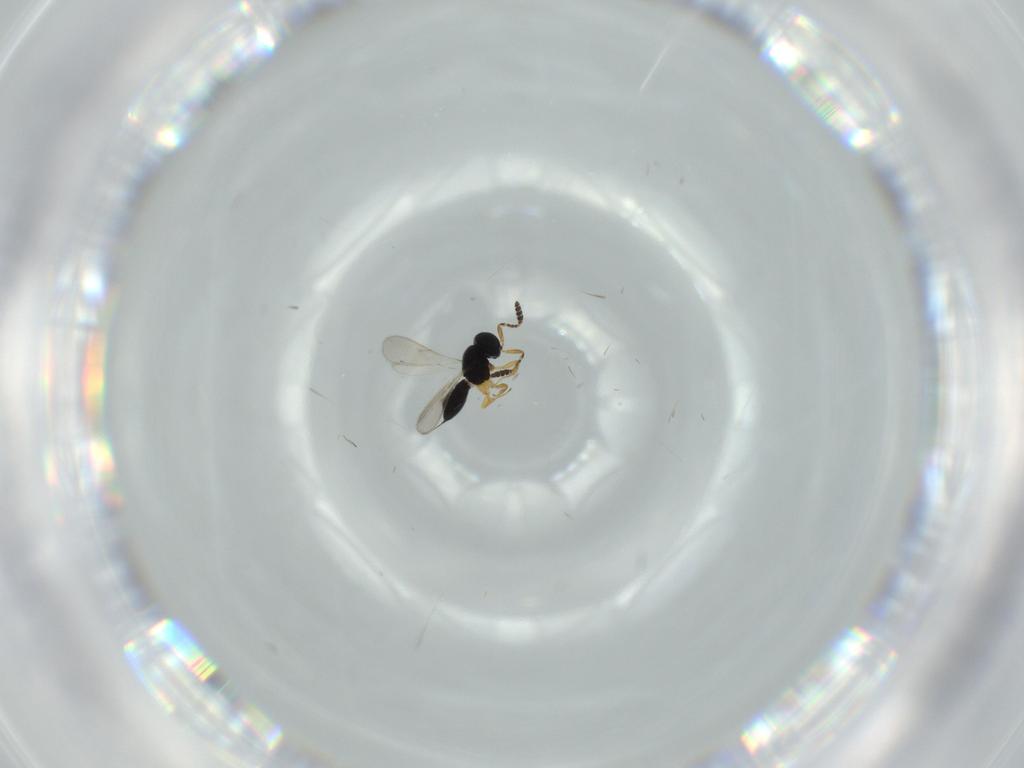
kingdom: Animalia
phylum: Arthropoda
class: Insecta
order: Hymenoptera
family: Scelionidae
